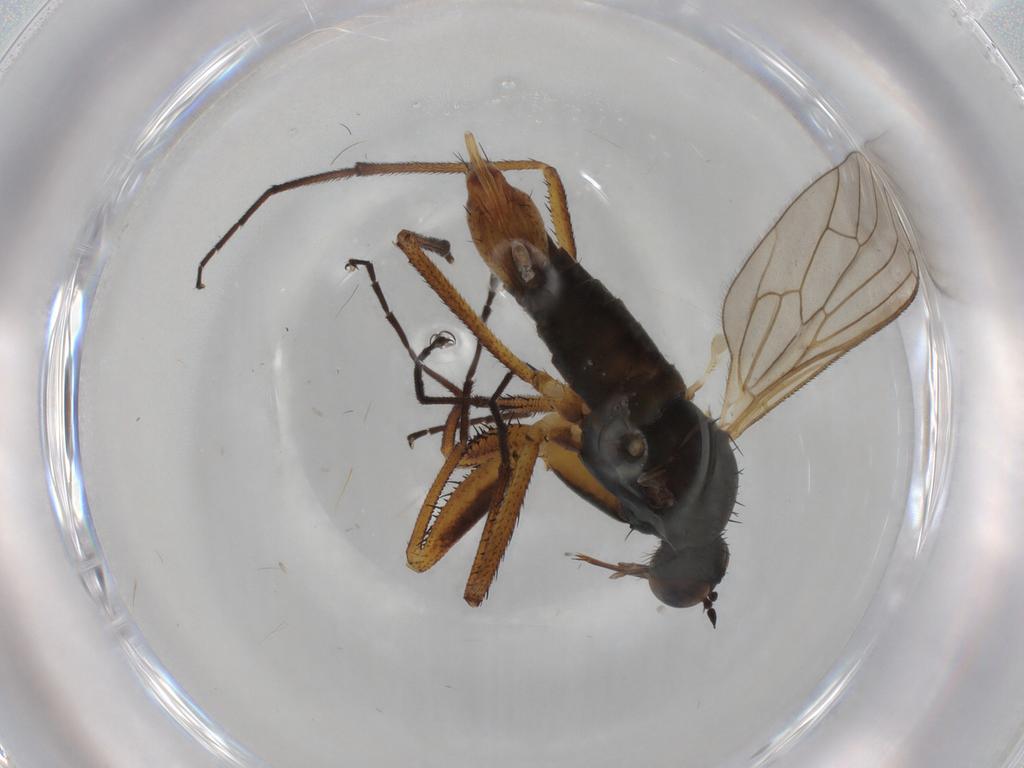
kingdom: Animalia
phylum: Arthropoda
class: Insecta
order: Diptera
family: Empididae
